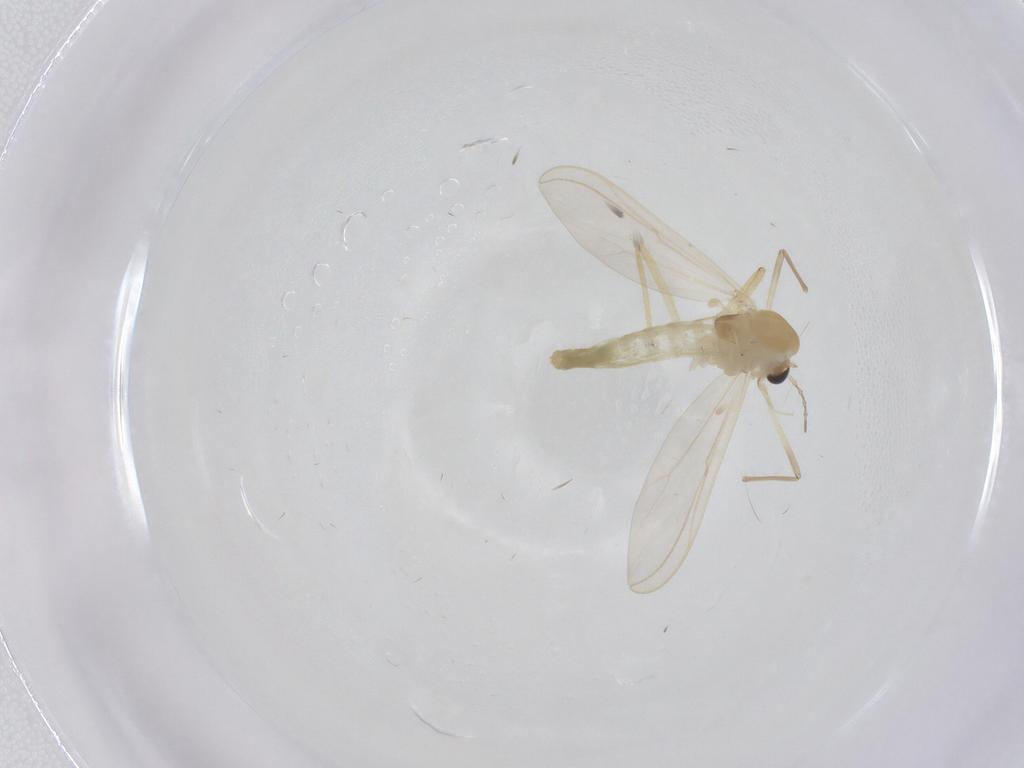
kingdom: Animalia
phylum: Arthropoda
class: Insecta
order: Diptera
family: Chironomidae
